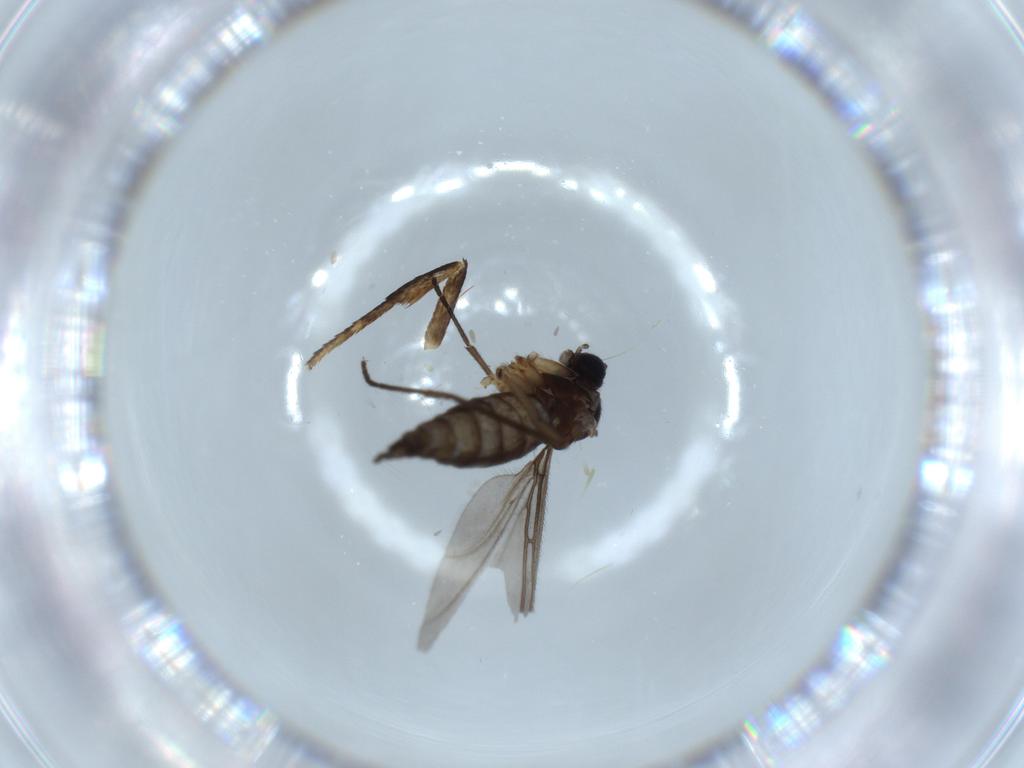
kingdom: Animalia
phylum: Arthropoda
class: Insecta
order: Diptera
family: Sciaridae
